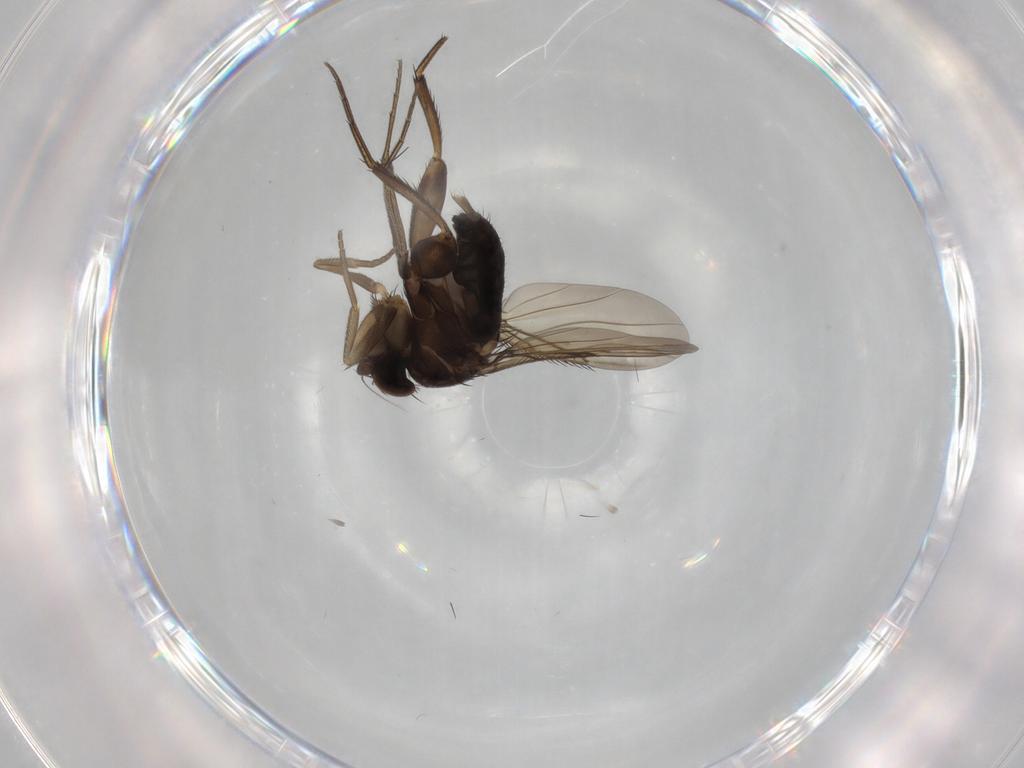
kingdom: Animalia
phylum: Arthropoda
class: Insecta
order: Diptera
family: Phoridae
